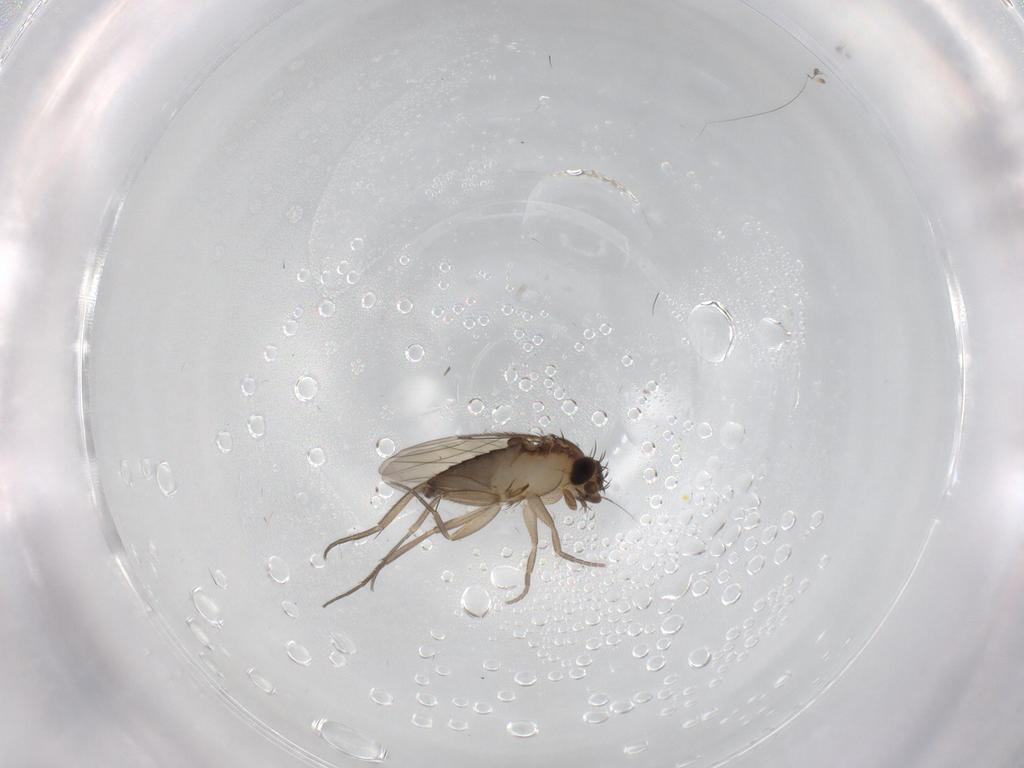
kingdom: Animalia
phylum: Arthropoda
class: Insecta
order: Diptera
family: Phoridae
